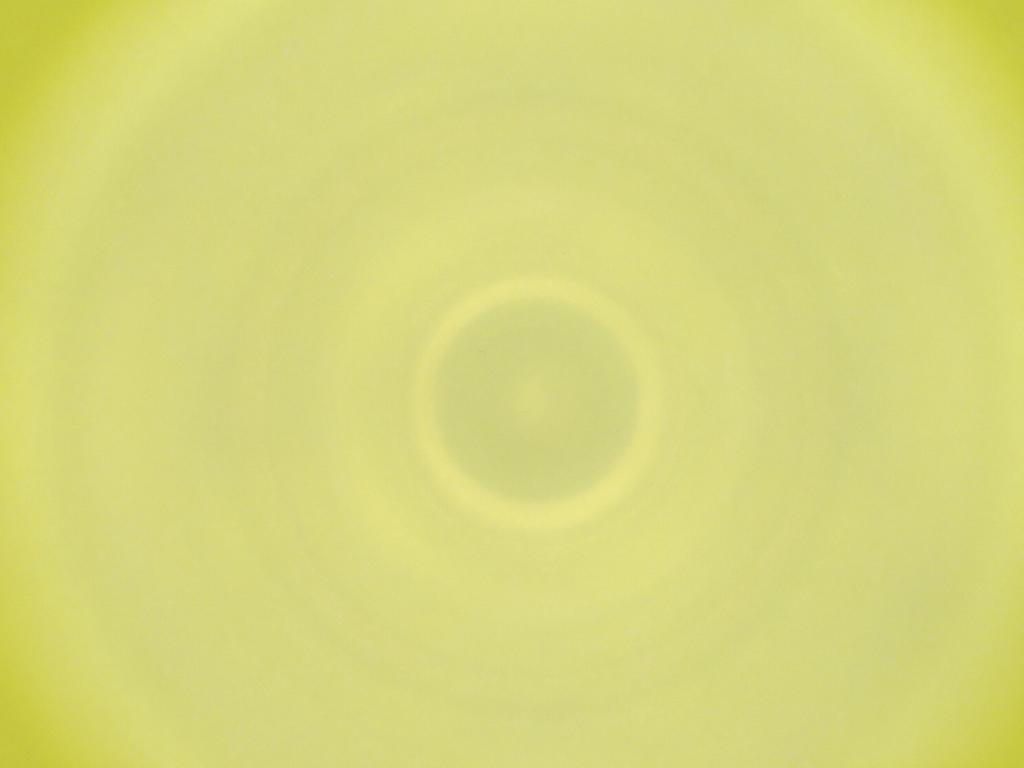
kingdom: Animalia
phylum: Arthropoda
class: Insecta
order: Diptera
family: Cecidomyiidae
